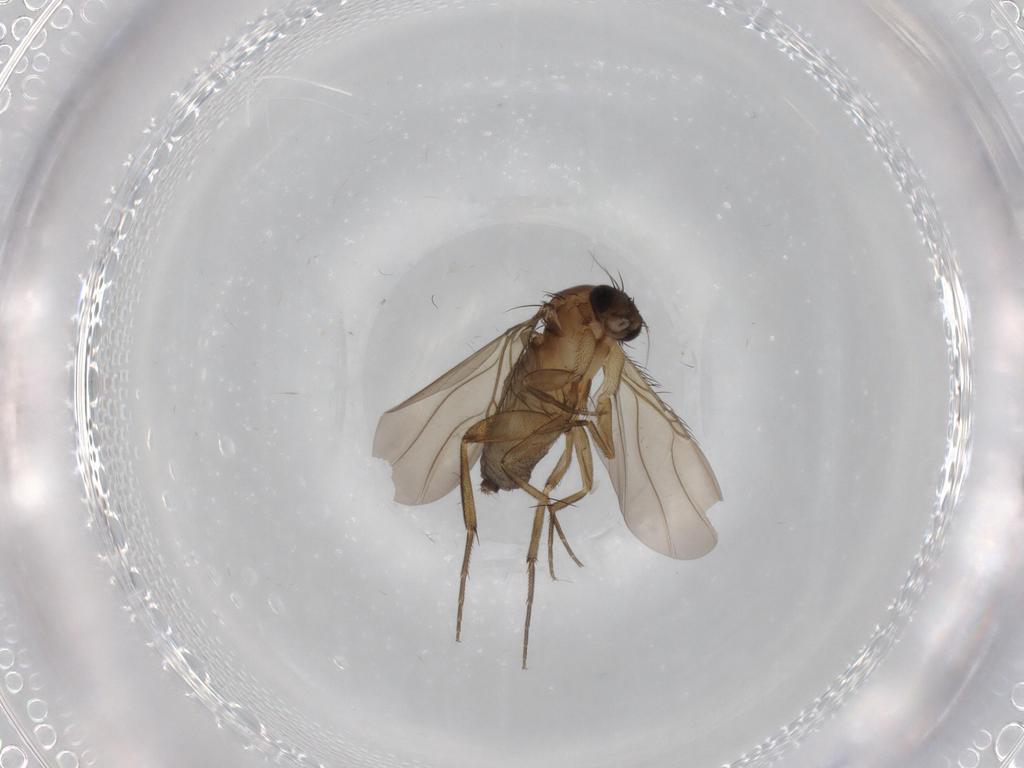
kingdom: Animalia
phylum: Arthropoda
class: Insecta
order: Diptera
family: Phoridae
